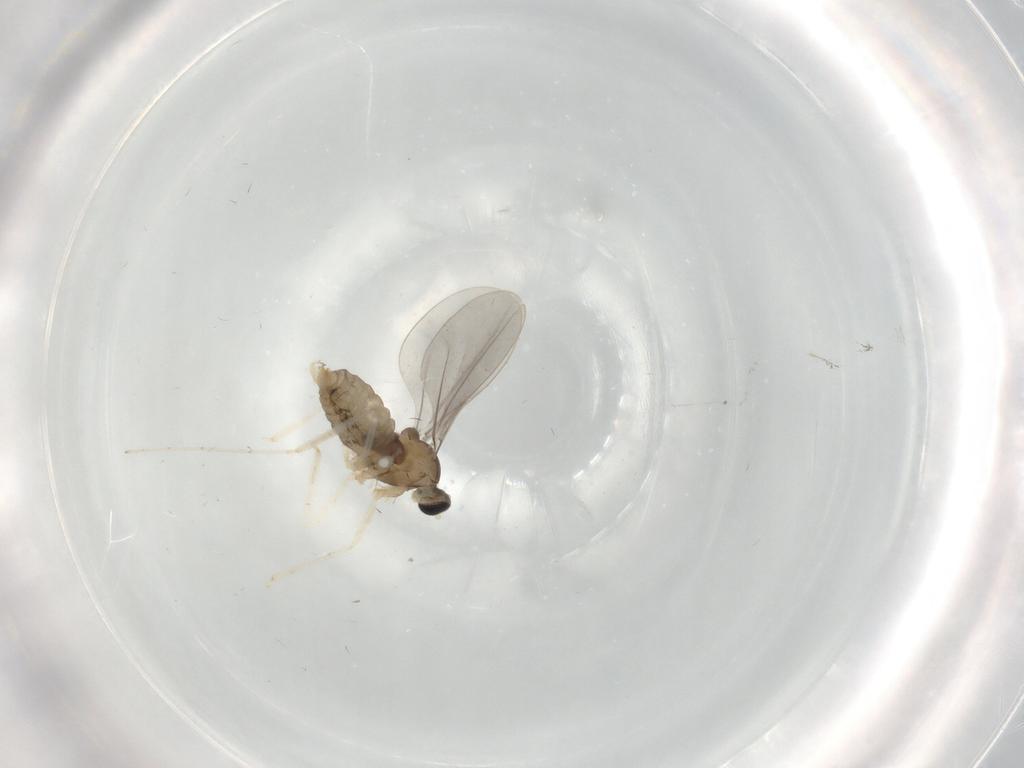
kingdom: Animalia
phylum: Arthropoda
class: Insecta
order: Diptera
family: Cecidomyiidae
